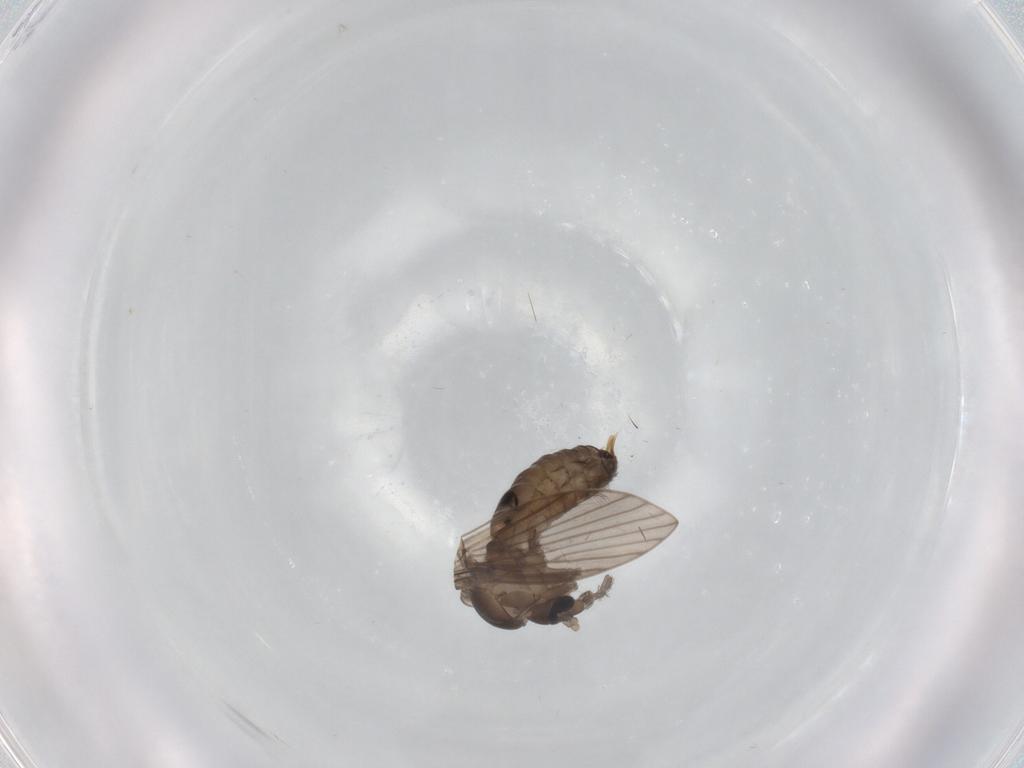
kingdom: Animalia
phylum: Arthropoda
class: Insecta
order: Diptera
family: Psychodidae
